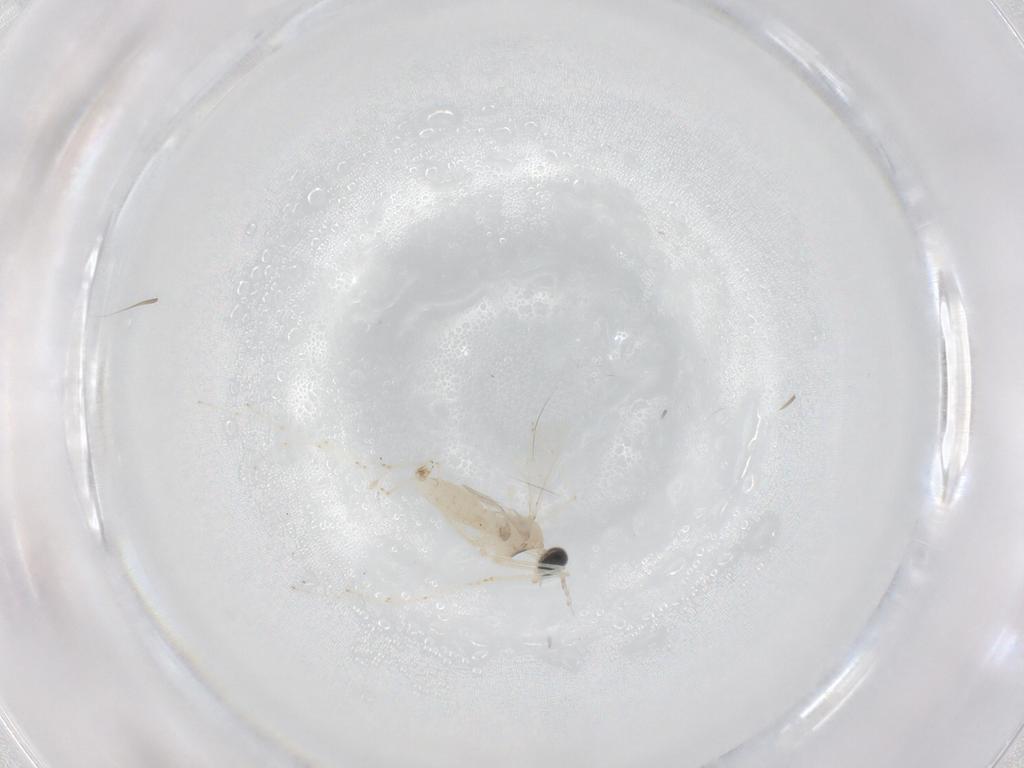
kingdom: Animalia
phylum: Arthropoda
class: Insecta
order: Diptera
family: Cecidomyiidae
